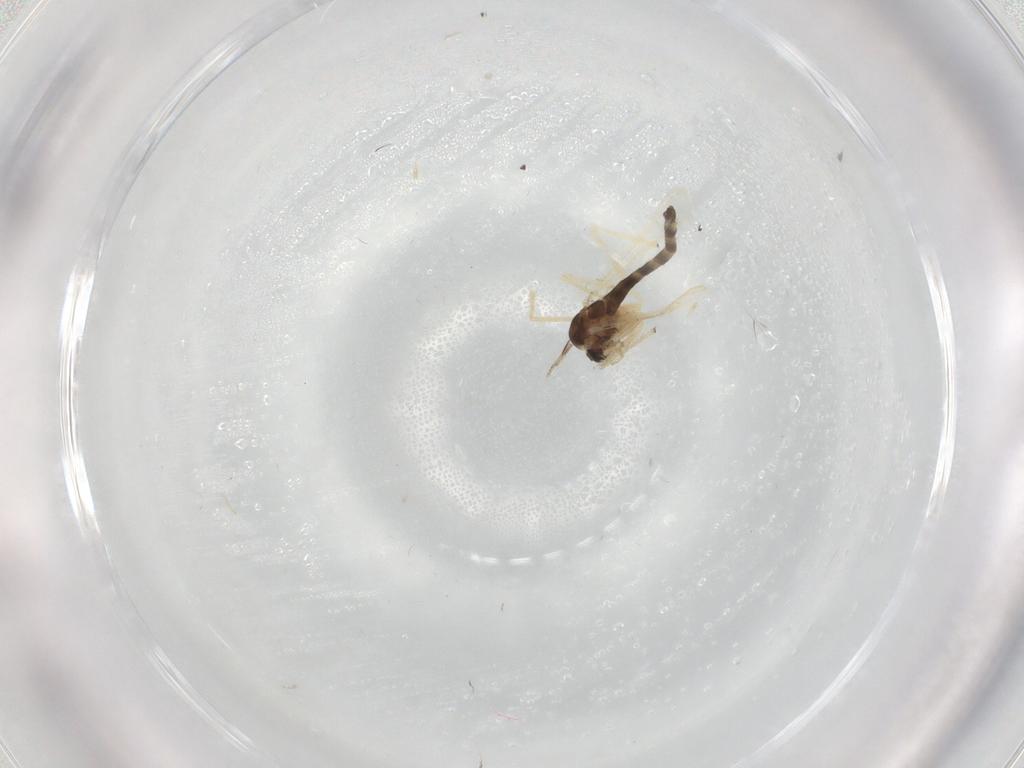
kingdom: Animalia
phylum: Arthropoda
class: Insecta
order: Diptera
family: Cecidomyiidae
